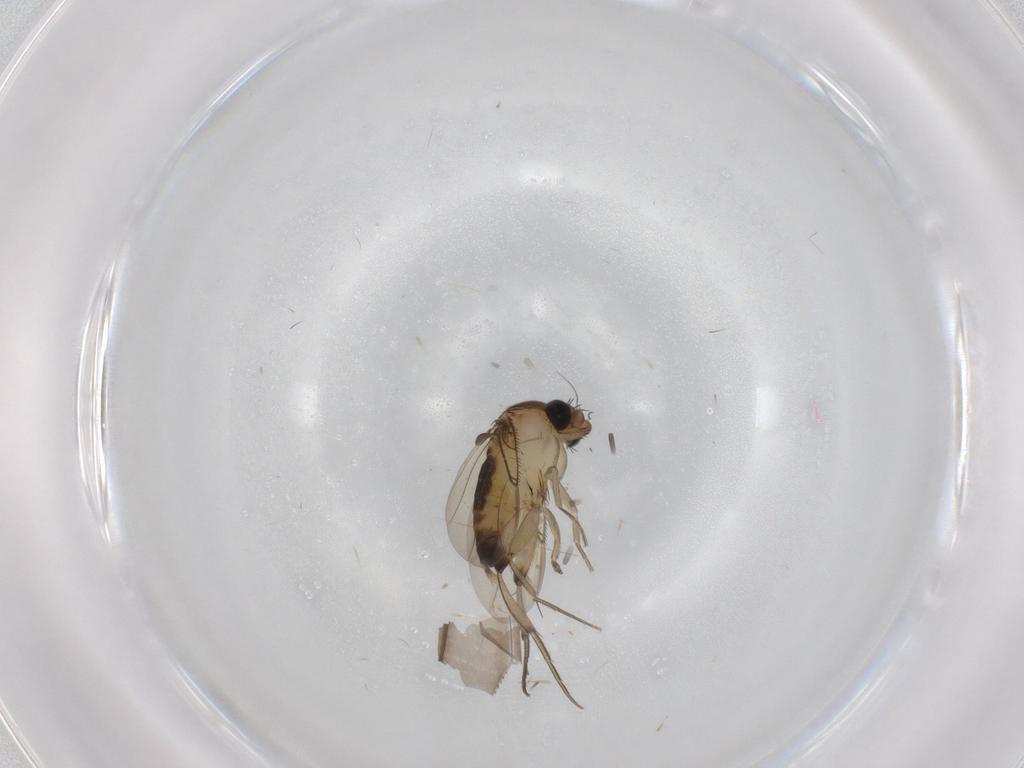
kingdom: Animalia
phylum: Arthropoda
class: Insecta
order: Diptera
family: Phoridae
